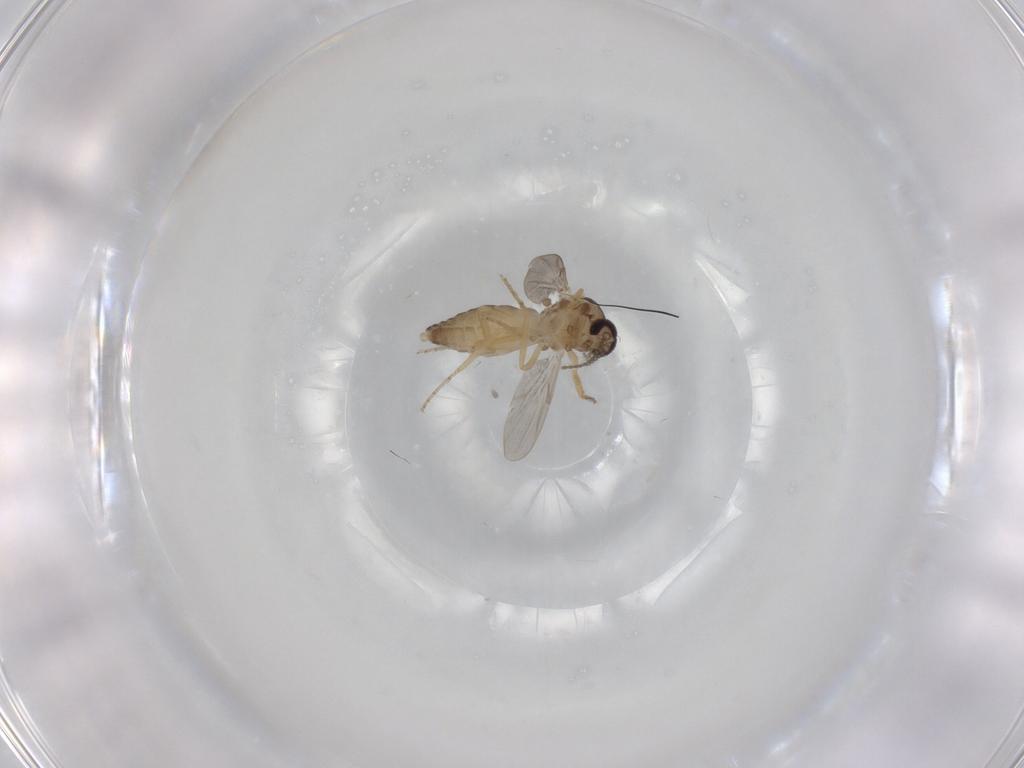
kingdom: Animalia
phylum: Arthropoda
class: Insecta
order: Diptera
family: Ceratopogonidae
